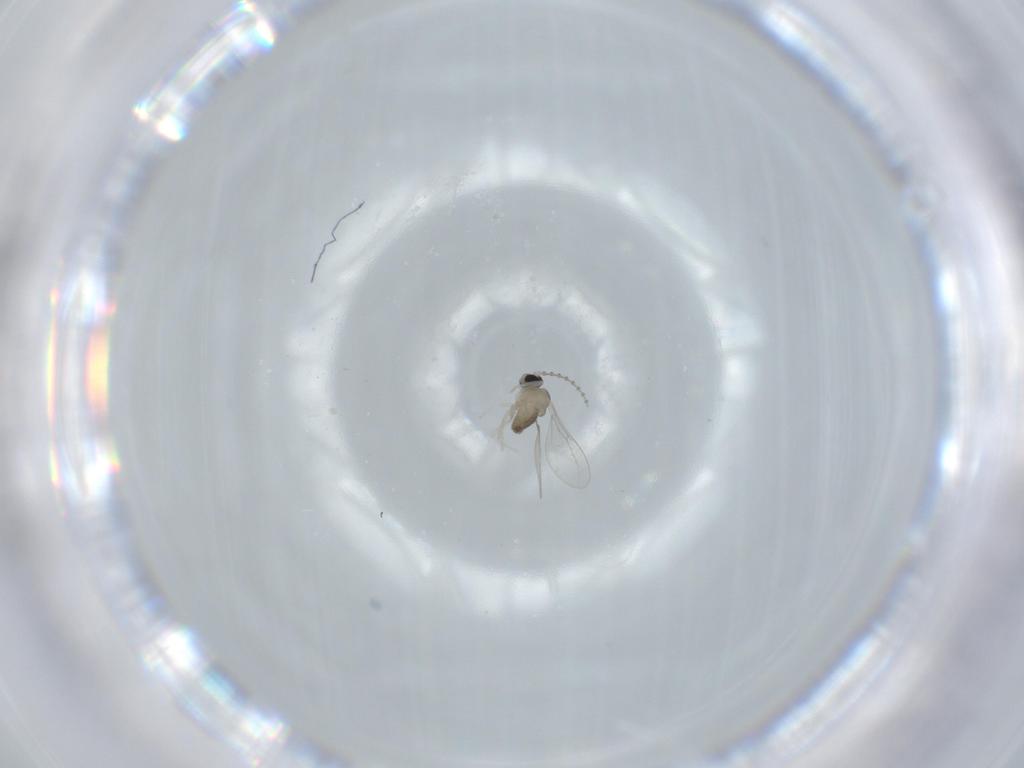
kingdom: Animalia
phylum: Arthropoda
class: Insecta
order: Diptera
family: Cecidomyiidae
